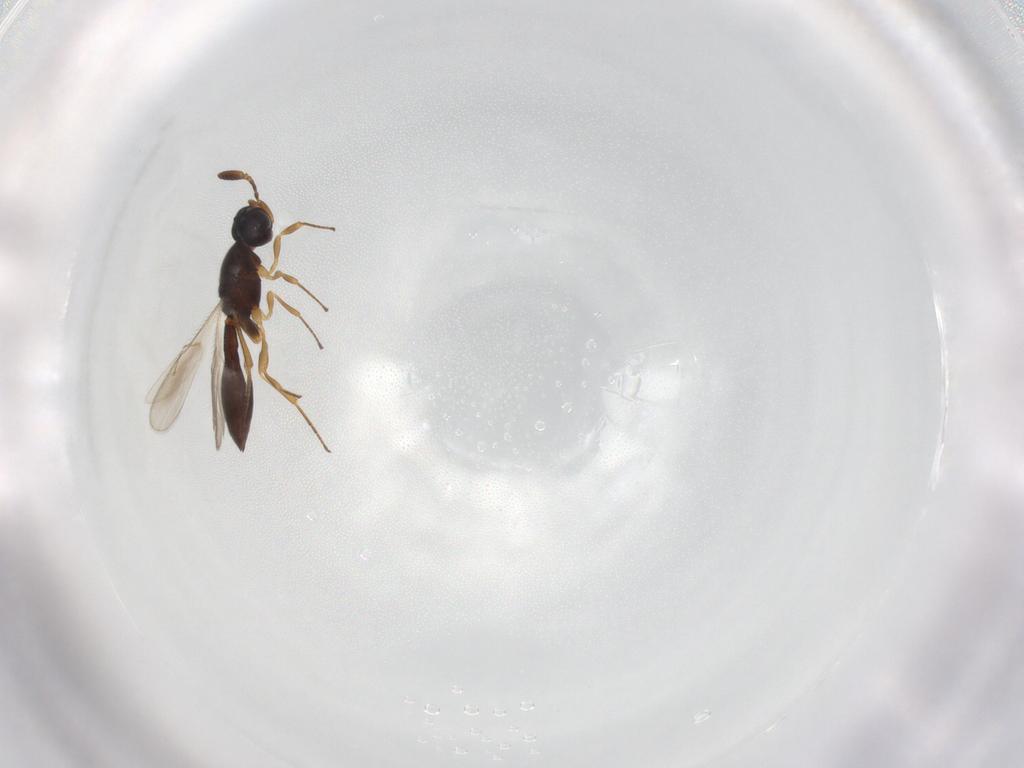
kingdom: Animalia
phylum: Arthropoda
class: Insecta
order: Hymenoptera
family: Scelionidae
